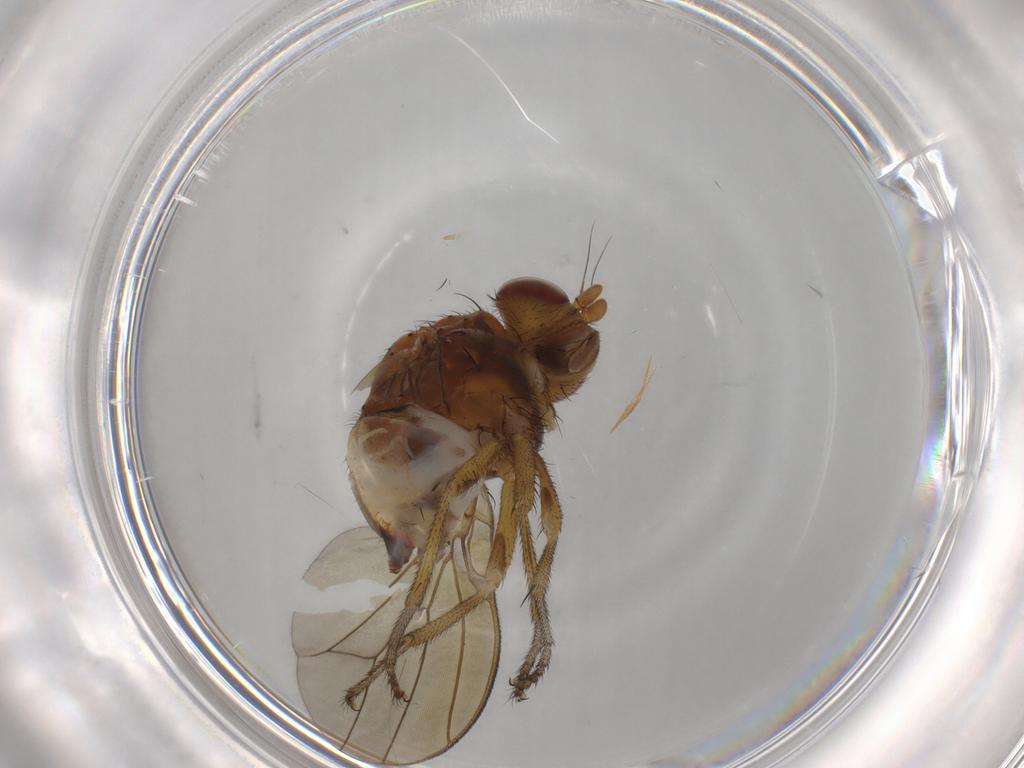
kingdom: Animalia
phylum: Arthropoda
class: Insecta
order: Diptera
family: Lauxaniidae
